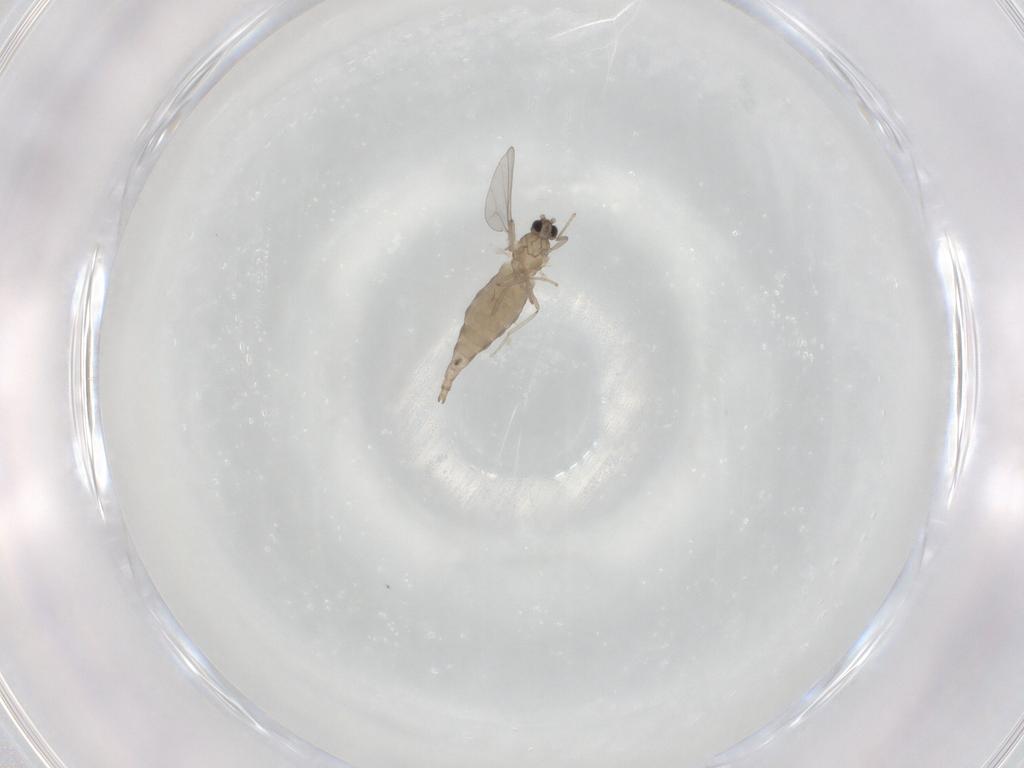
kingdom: Animalia
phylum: Arthropoda
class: Insecta
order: Diptera
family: Cecidomyiidae
